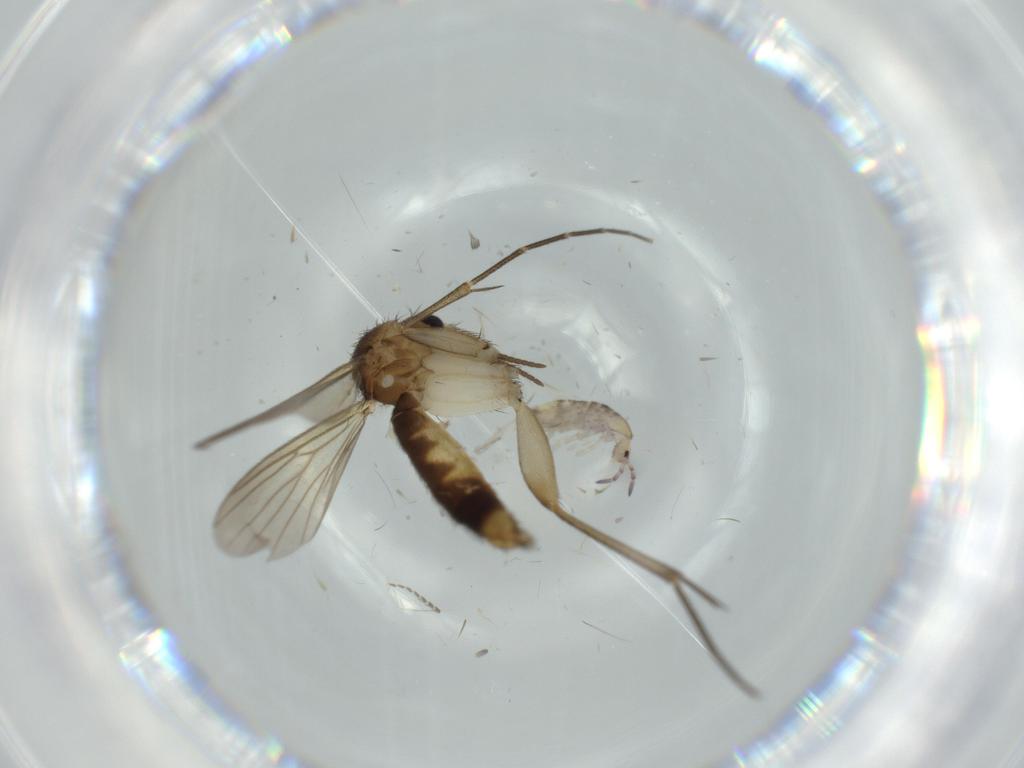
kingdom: Animalia
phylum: Arthropoda
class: Insecta
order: Diptera
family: Mycetophilidae
